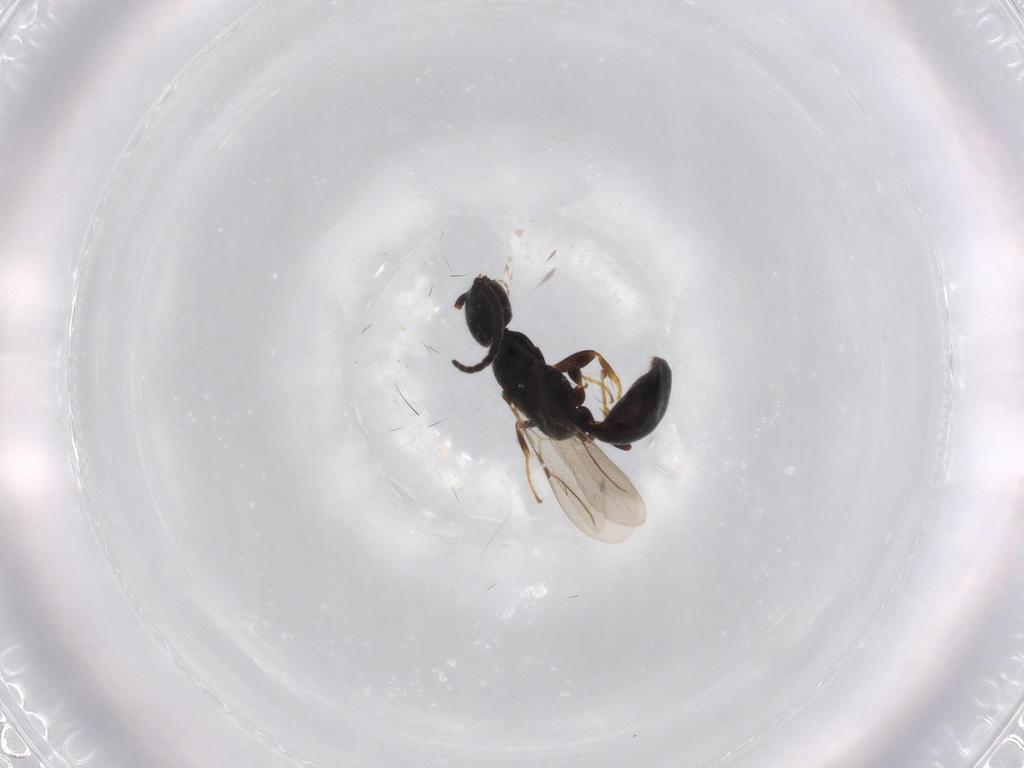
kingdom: Animalia
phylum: Arthropoda
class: Insecta
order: Hymenoptera
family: Bethylidae
